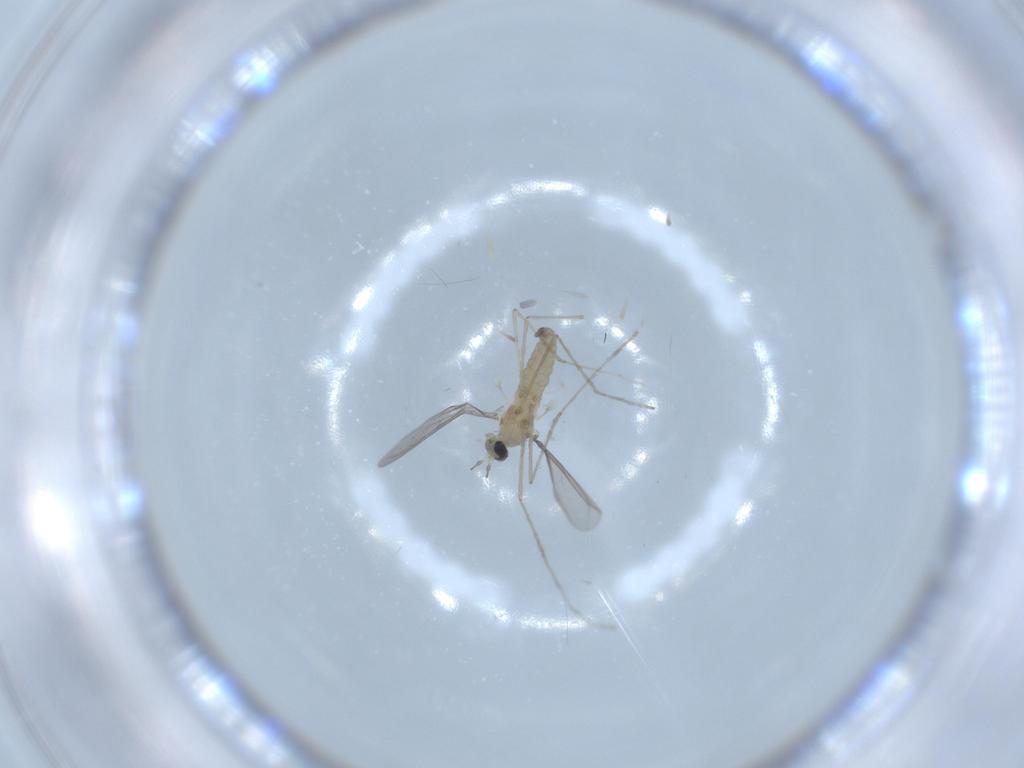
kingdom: Animalia
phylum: Arthropoda
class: Insecta
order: Diptera
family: Cecidomyiidae
